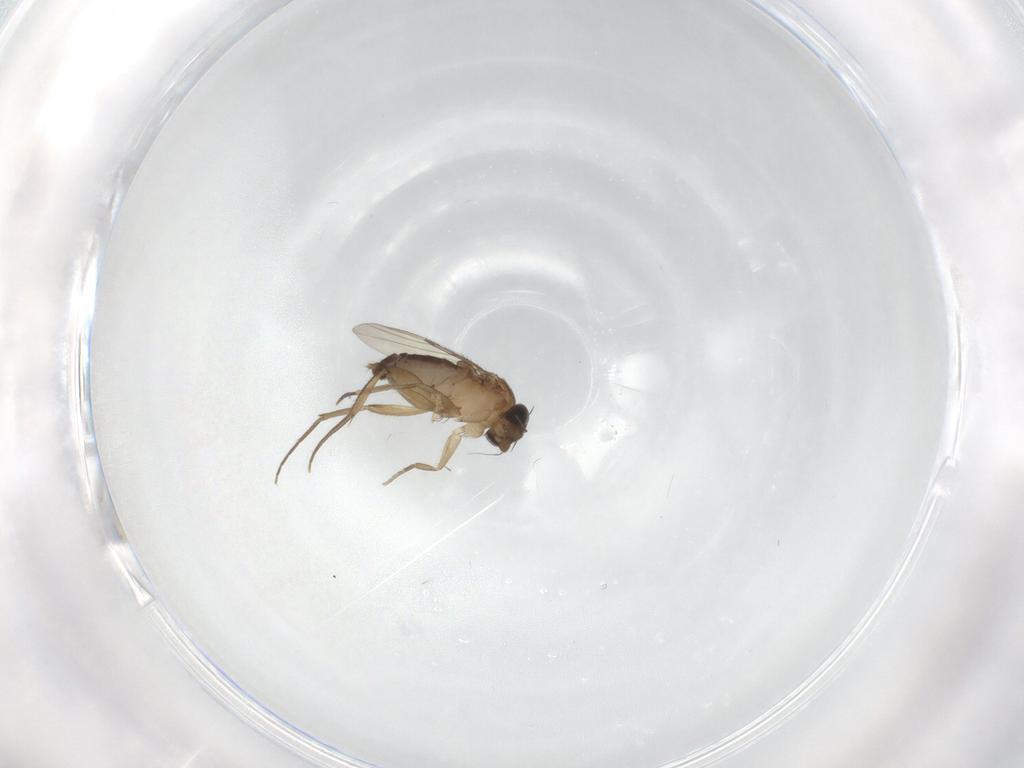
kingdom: Animalia
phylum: Arthropoda
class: Insecta
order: Diptera
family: Phoridae
